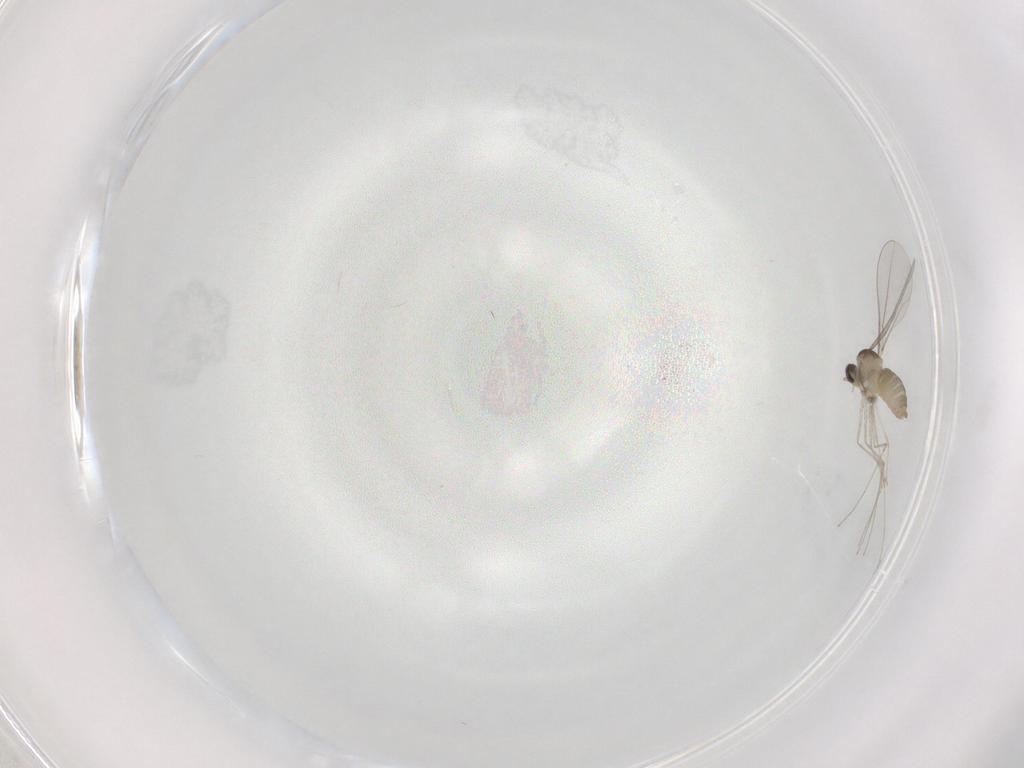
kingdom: Animalia
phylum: Arthropoda
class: Insecta
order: Diptera
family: Cecidomyiidae
